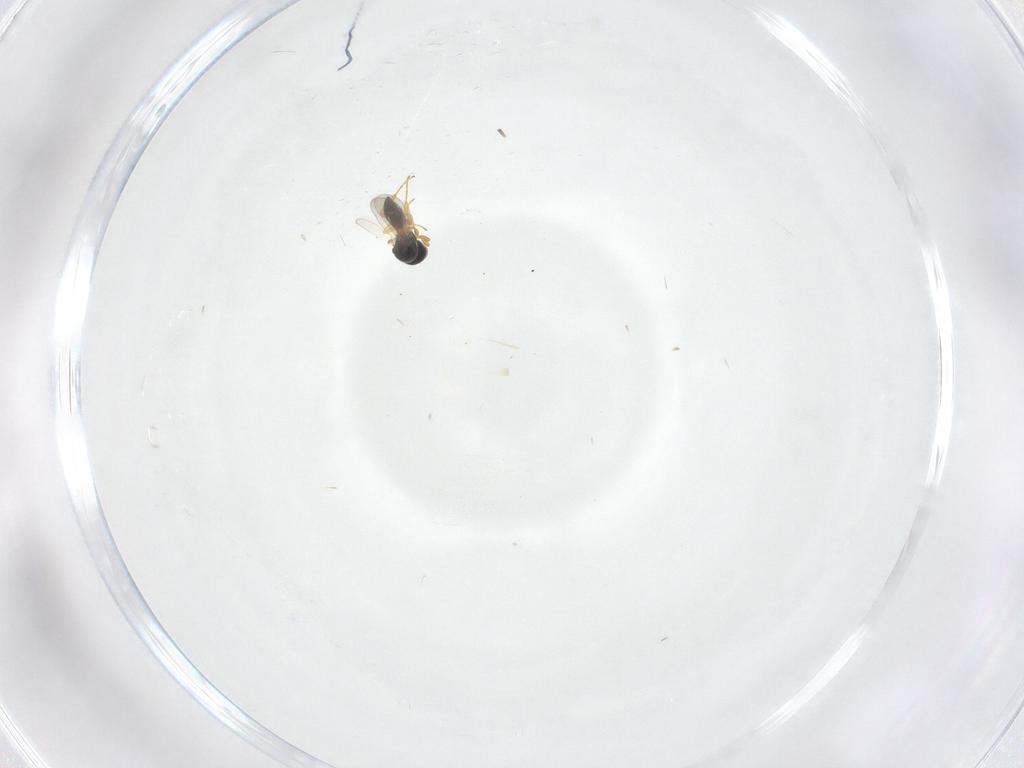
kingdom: Animalia
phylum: Arthropoda
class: Insecta
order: Hymenoptera
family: Platygastridae
